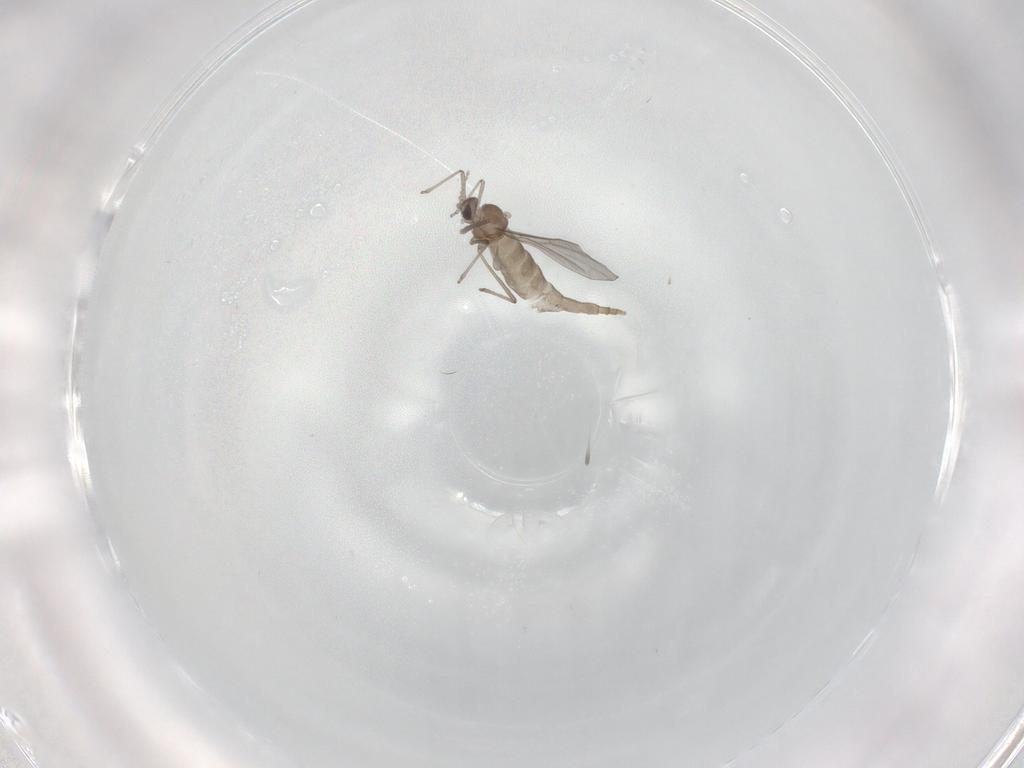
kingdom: Animalia
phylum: Arthropoda
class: Insecta
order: Diptera
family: Cecidomyiidae
